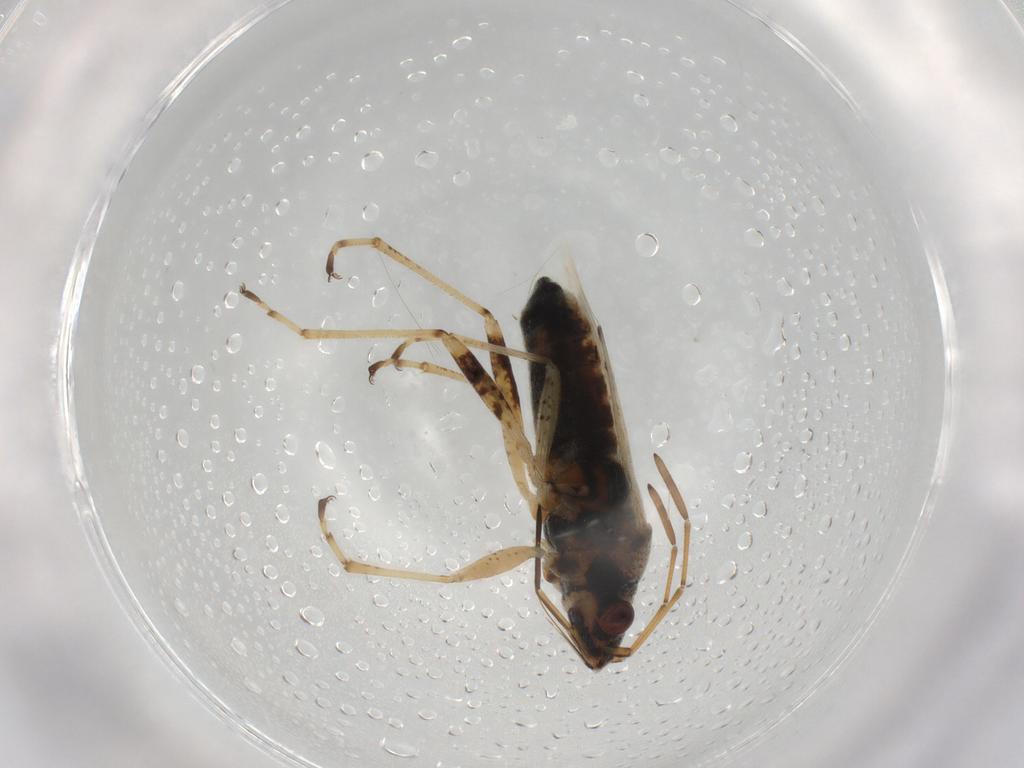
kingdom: Animalia
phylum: Arthropoda
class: Insecta
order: Hemiptera
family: Lygaeidae
